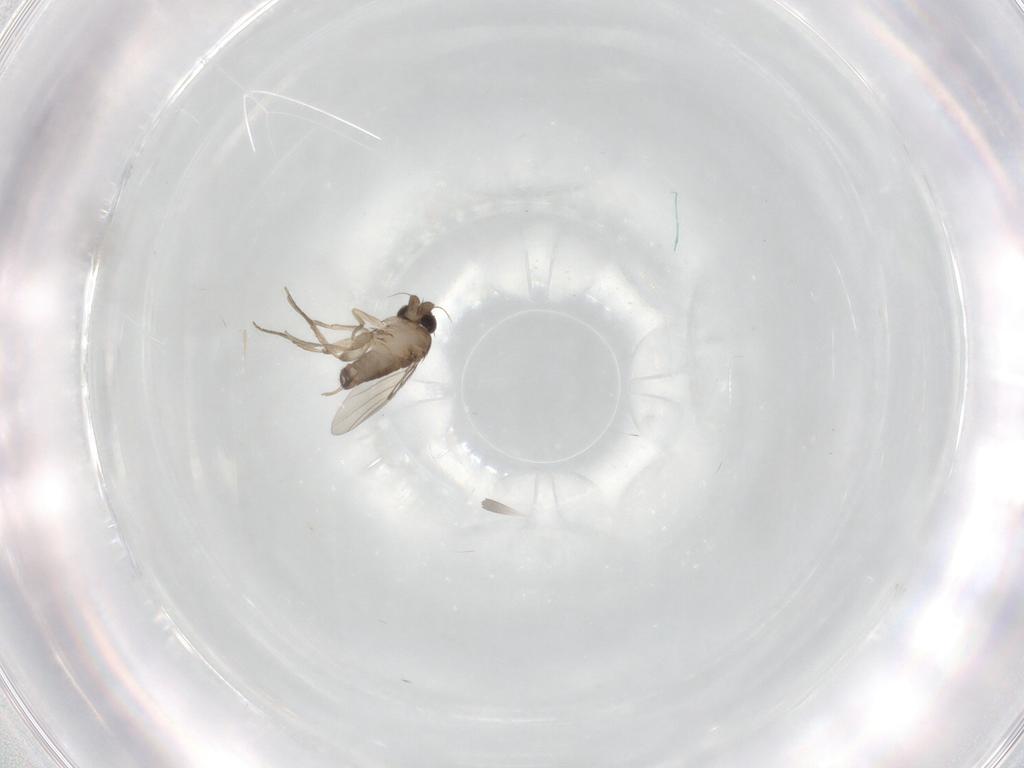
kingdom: Animalia
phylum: Arthropoda
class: Insecta
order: Diptera
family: Phoridae
